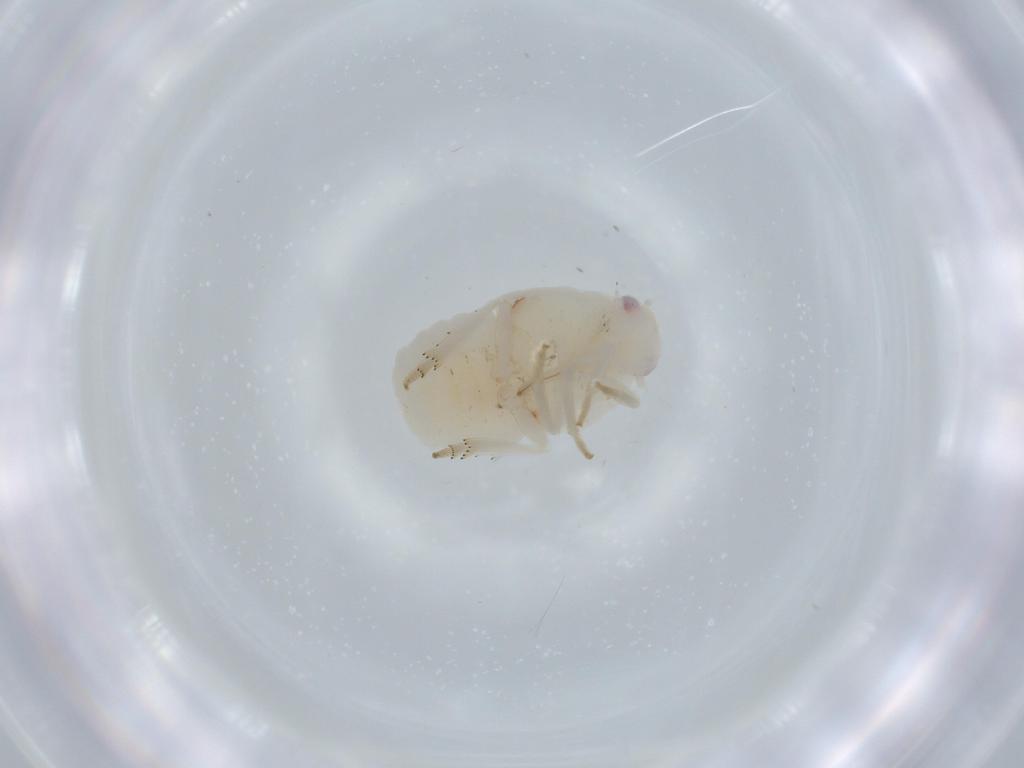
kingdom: Animalia
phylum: Arthropoda
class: Insecta
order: Hemiptera
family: Flatidae
